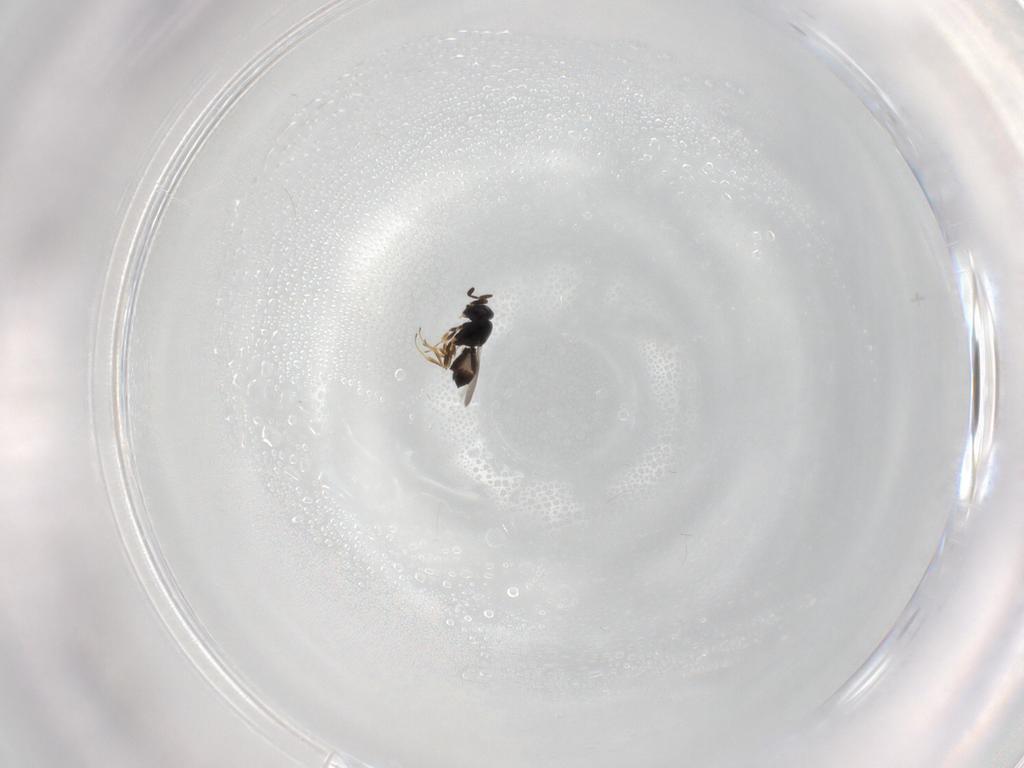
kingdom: Animalia
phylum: Arthropoda
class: Insecta
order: Hymenoptera
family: Scelionidae
